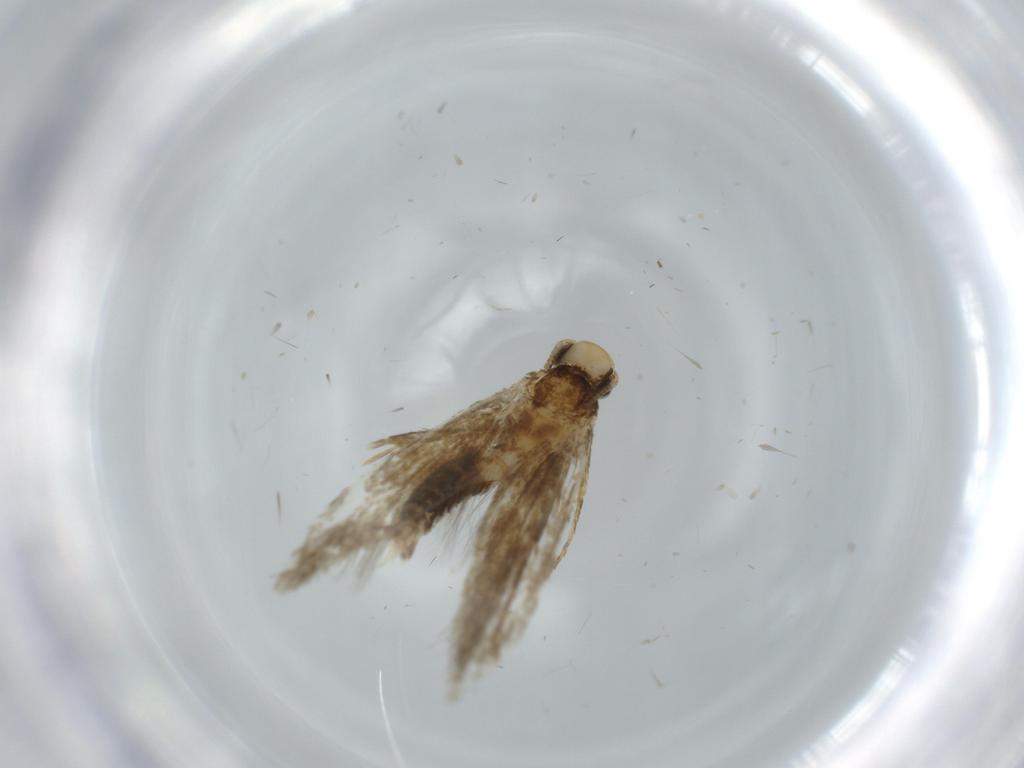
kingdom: Animalia
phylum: Arthropoda
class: Insecta
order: Lepidoptera
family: Tineidae
